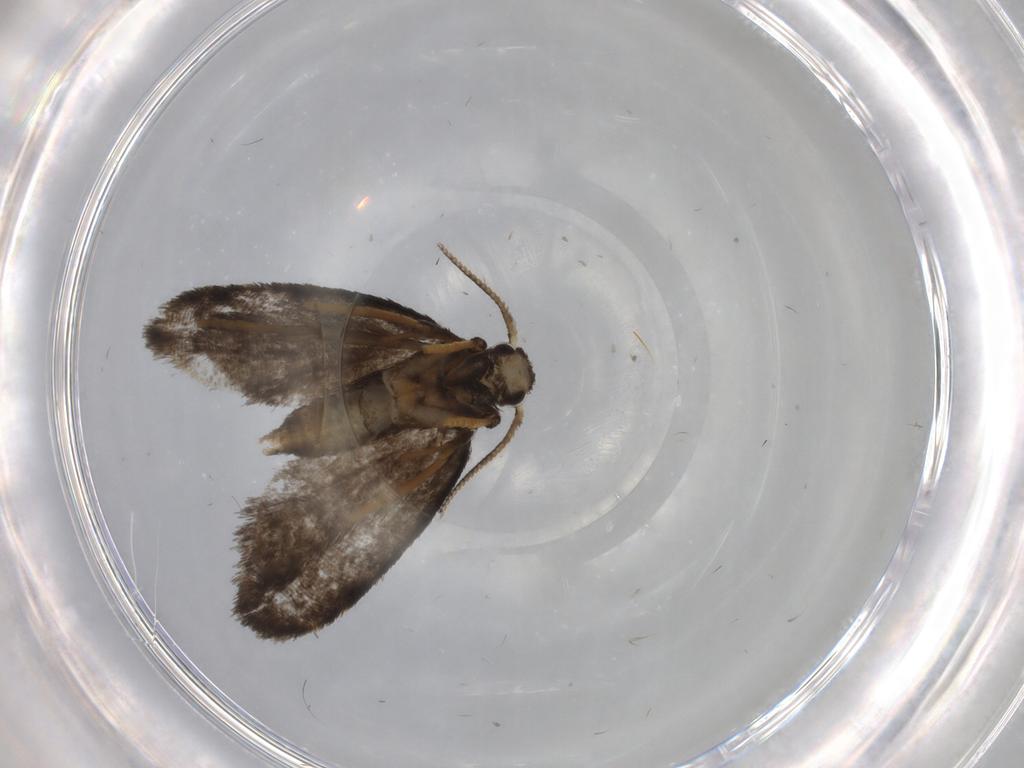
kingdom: Animalia
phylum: Arthropoda
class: Insecta
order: Lepidoptera
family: Psychidae
